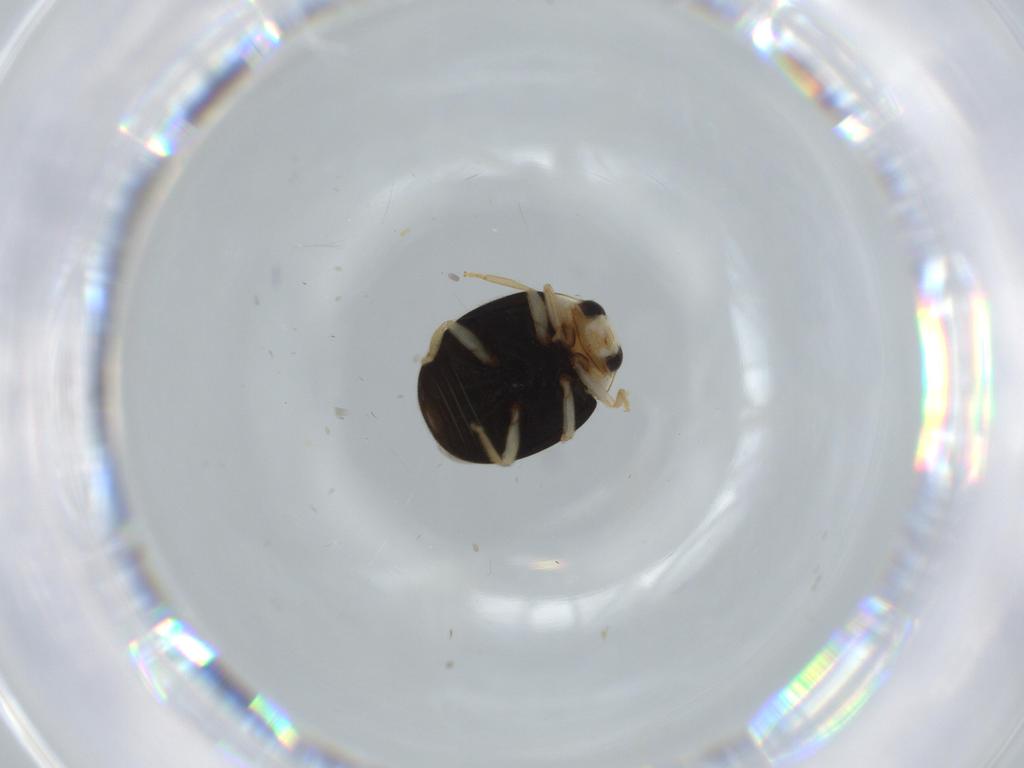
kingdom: Animalia
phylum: Arthropoda
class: Insecta
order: Coleoptera
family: Coccinellidae
